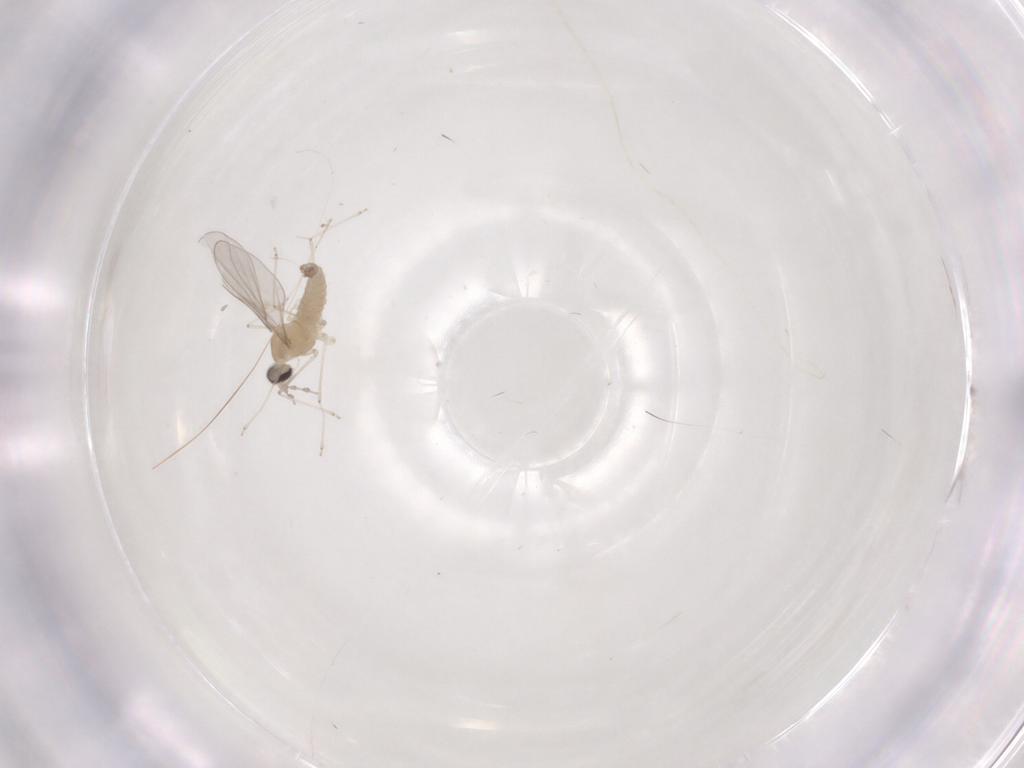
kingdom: Animalia
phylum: Arthropoda
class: Insecta
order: Diptera
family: Cecidomyiidae
